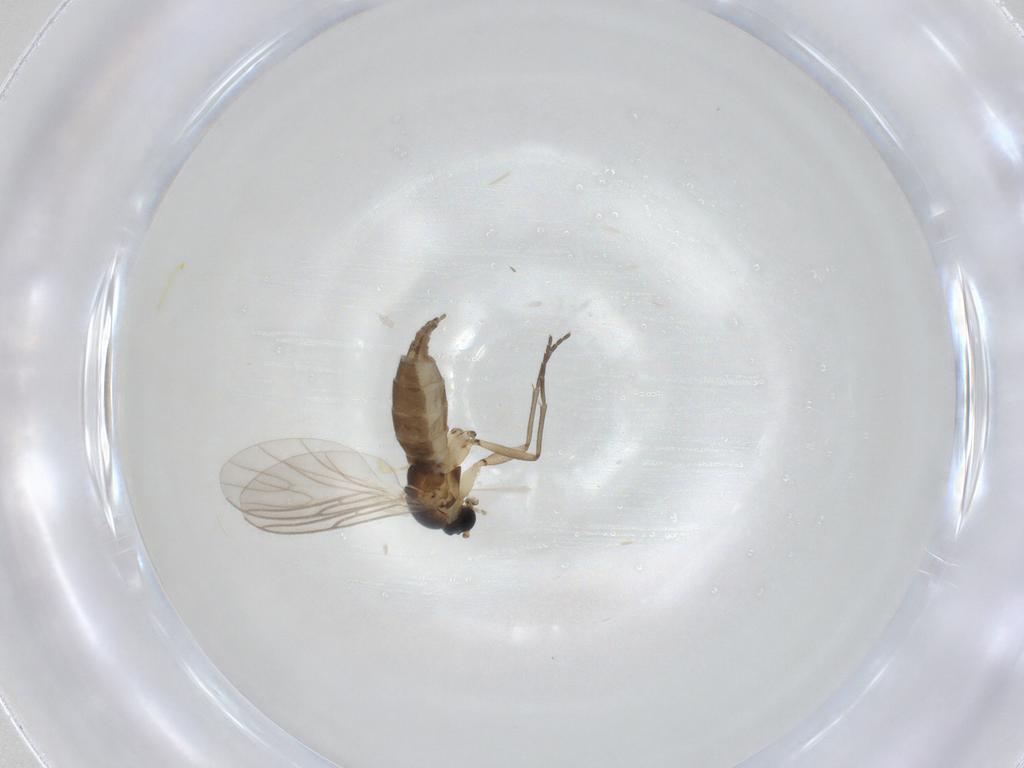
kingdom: Animalia
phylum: Arthropoda
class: Insecta
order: Diptera
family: Sciaridae
